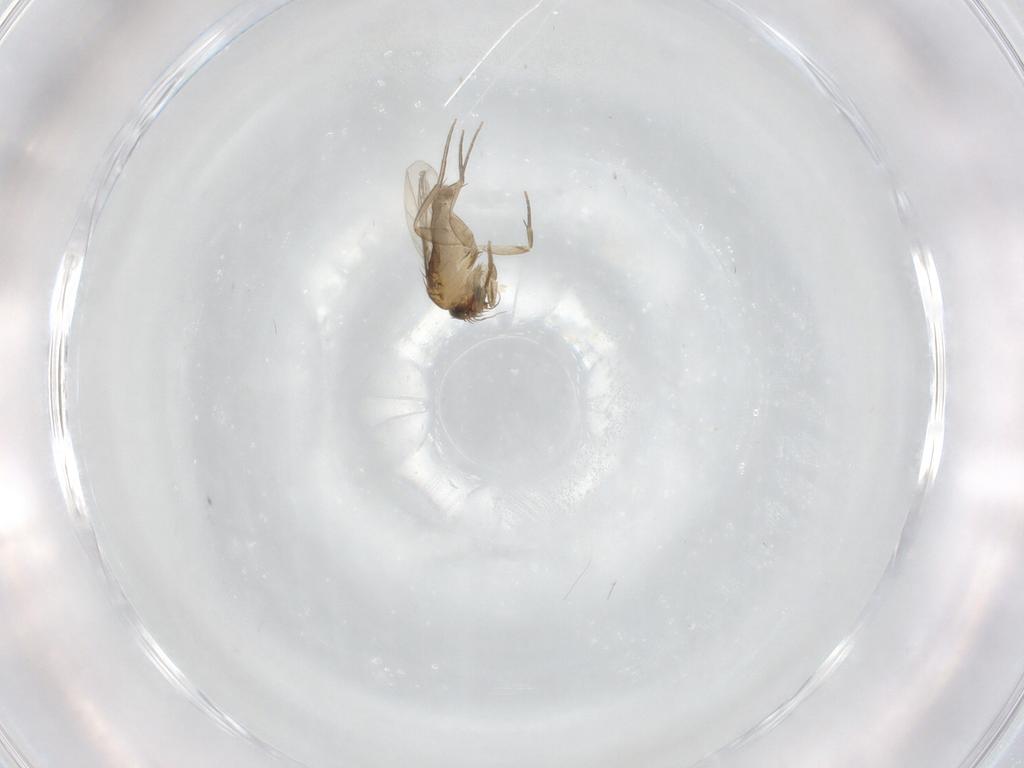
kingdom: Animalia
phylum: Arthropoda
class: Insecta
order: Diptera
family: Phoridae
